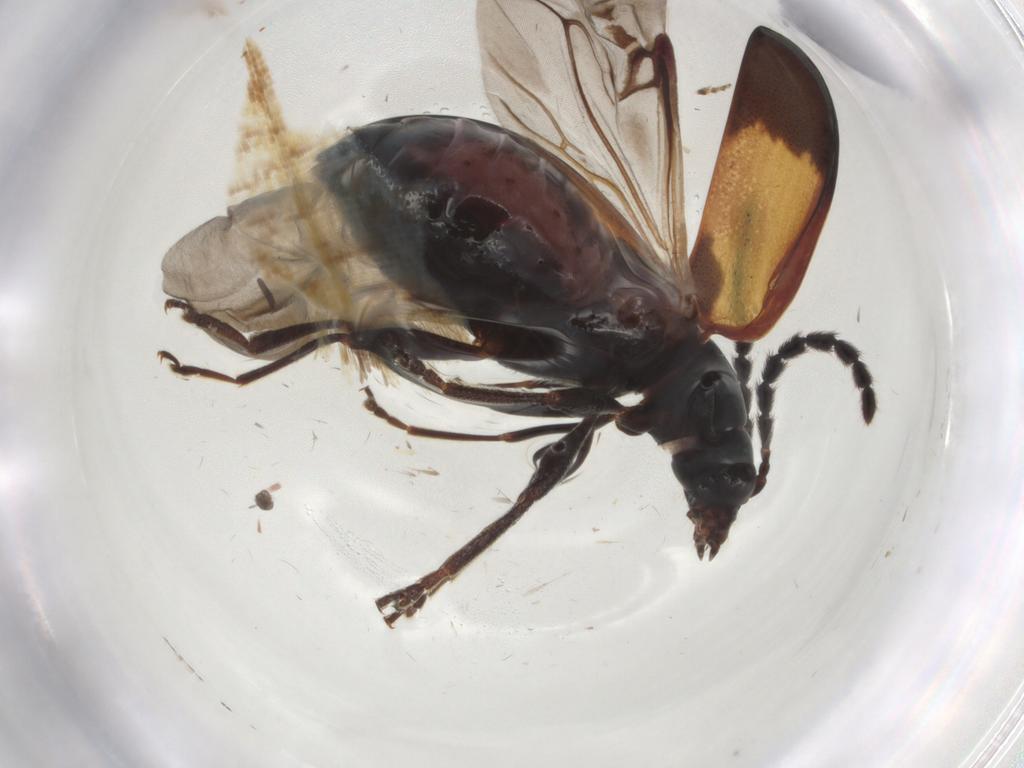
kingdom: Animalia
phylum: Arthropoda
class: Insecta
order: Coleoptera
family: Chrysomelidae
